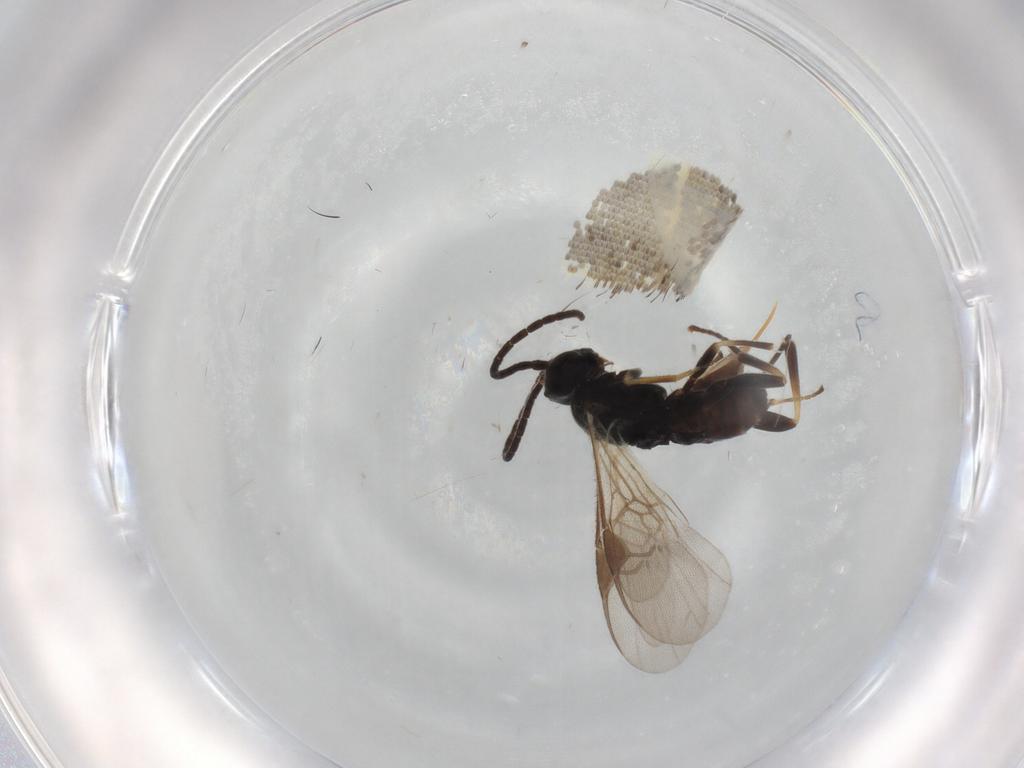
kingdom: Animalia
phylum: Arthropoda
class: Insecta
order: Hymenoptera
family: Braconidae
